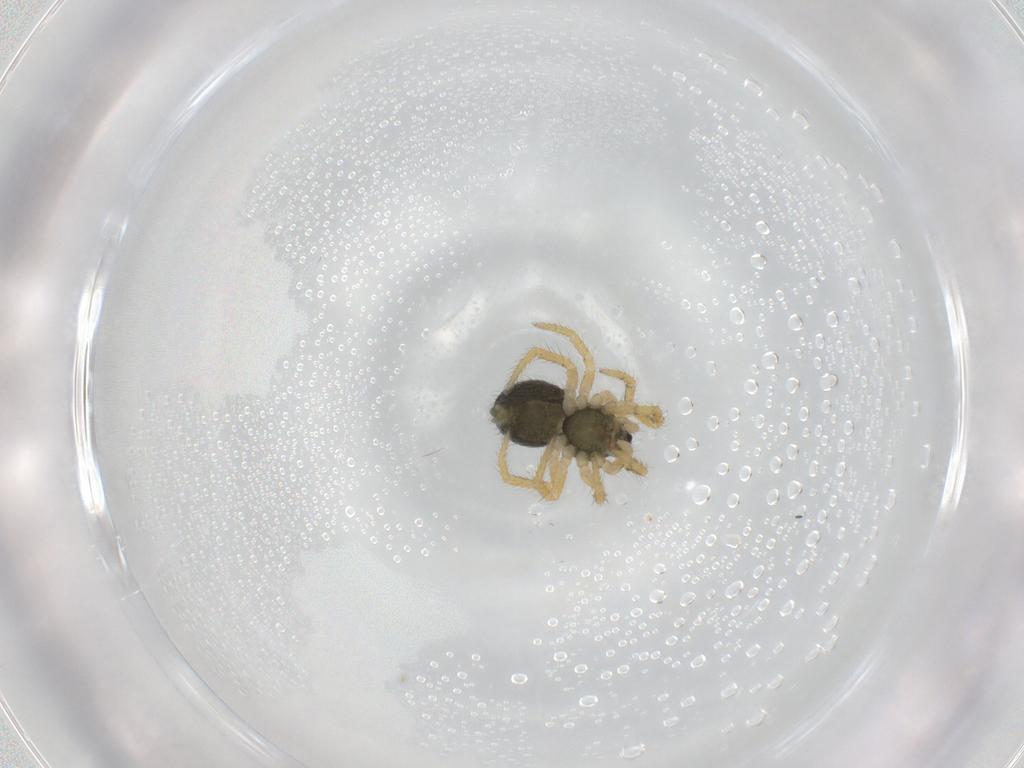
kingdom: Animalia
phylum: Arthropoda
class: Arachnida
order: Araneae
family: Theridiidae
